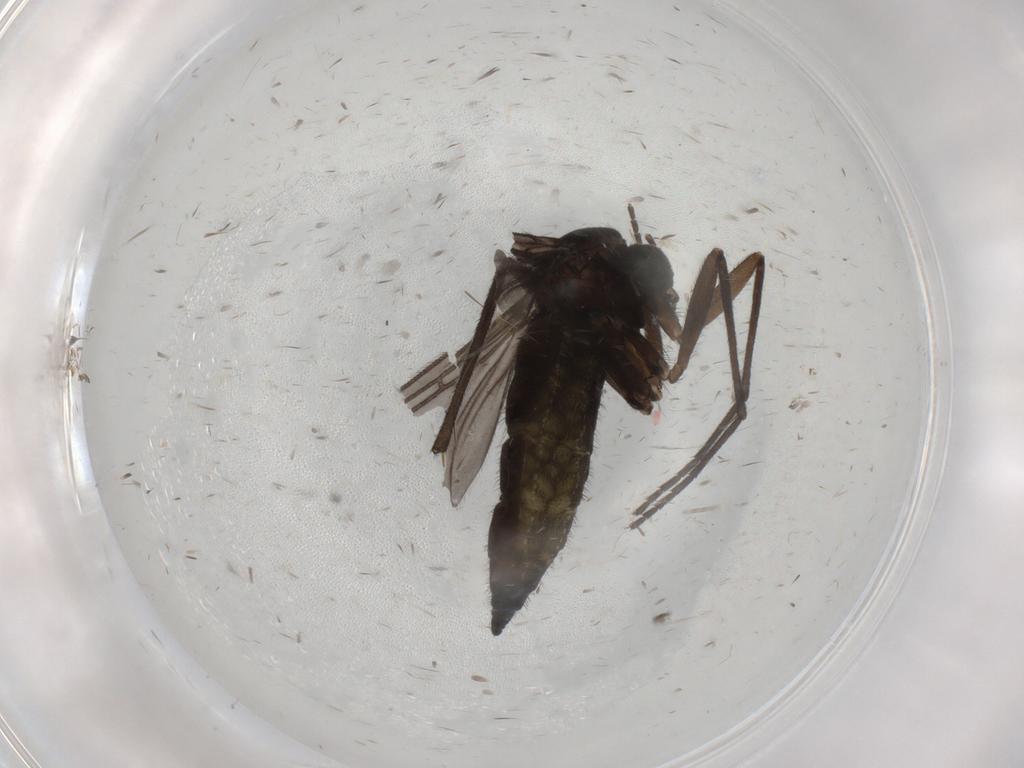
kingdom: Animalia
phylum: Arthropoda
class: Insecta
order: Diptera
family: Sciaridae
